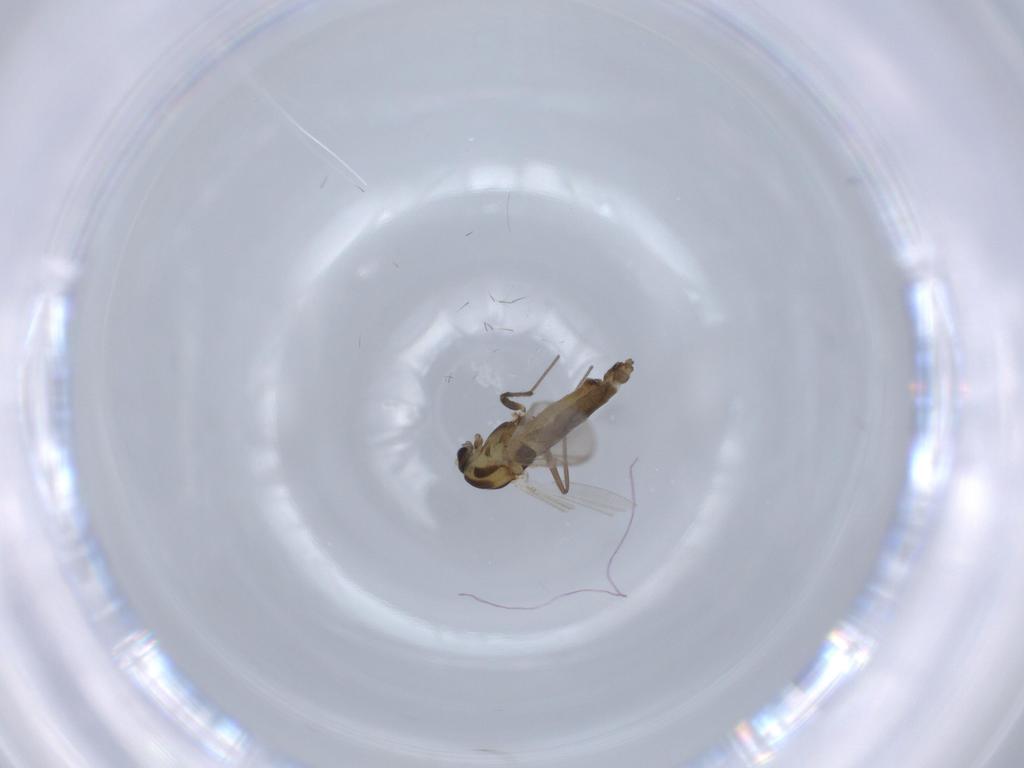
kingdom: Animalia
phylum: Arthropoda
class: Insecta
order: Diptera
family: Chironomidae
